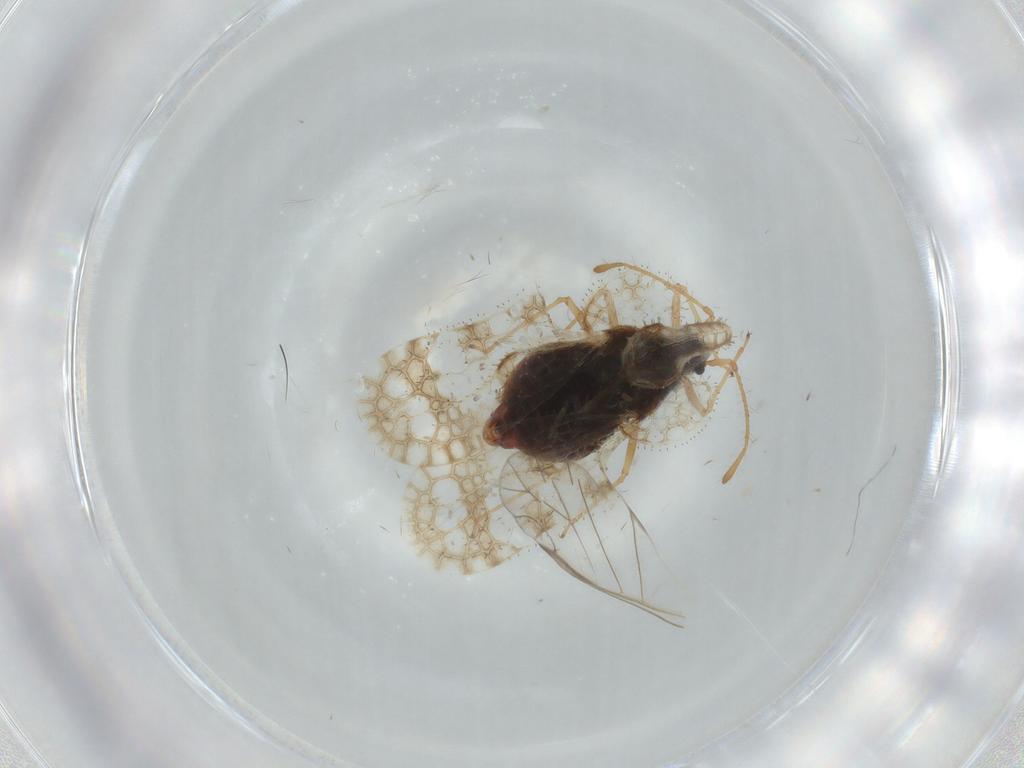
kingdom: Animalia
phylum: Arthropoda
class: Insecta
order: Hemiptera
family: Tingidae
